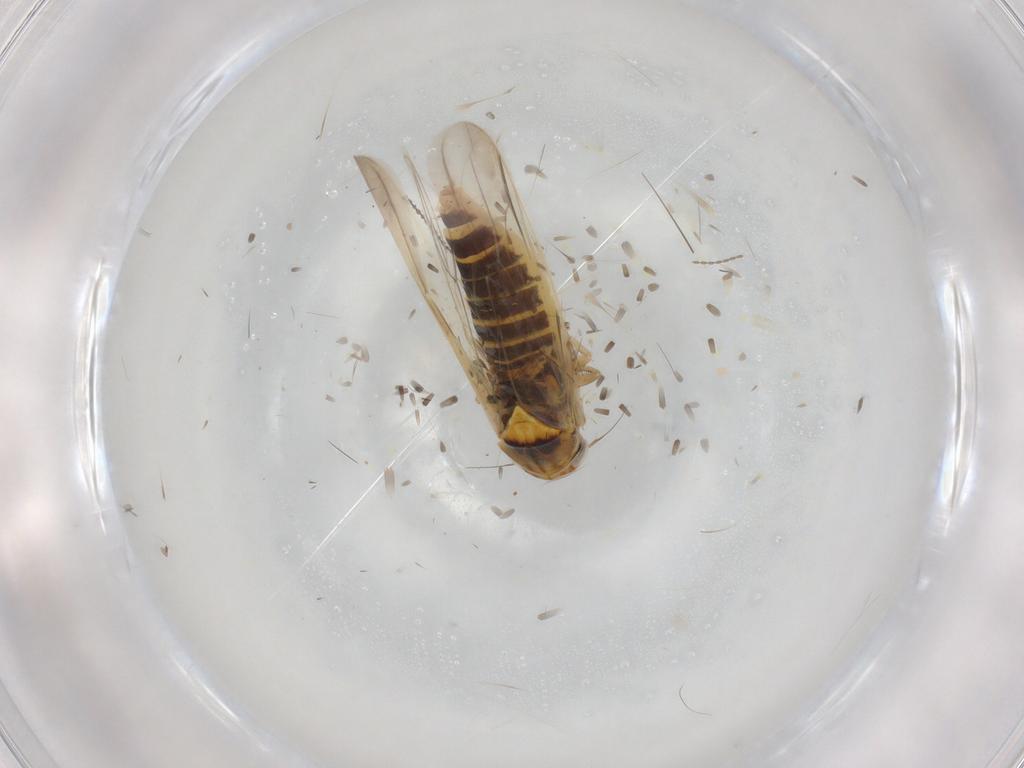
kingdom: Animalia
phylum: Arthropoda
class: Insecta
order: Hemiptera
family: Cicadellidae
